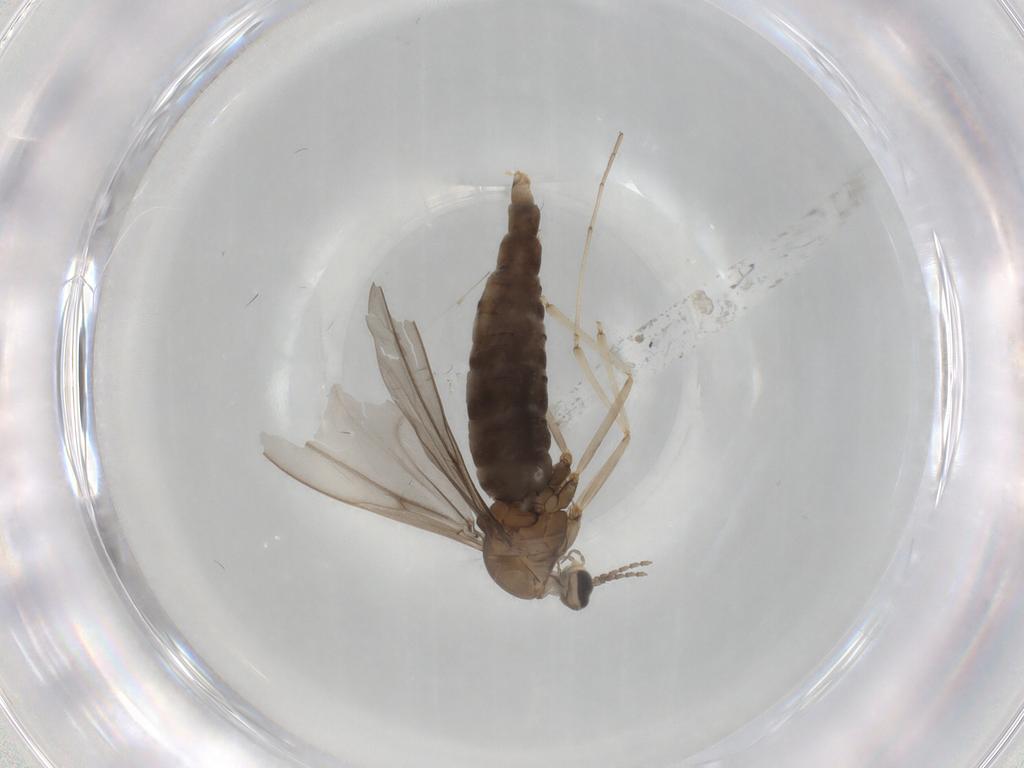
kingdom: Animalia
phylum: Arthropoda
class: Insecta
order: Diptera
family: Cecidomyiidae
